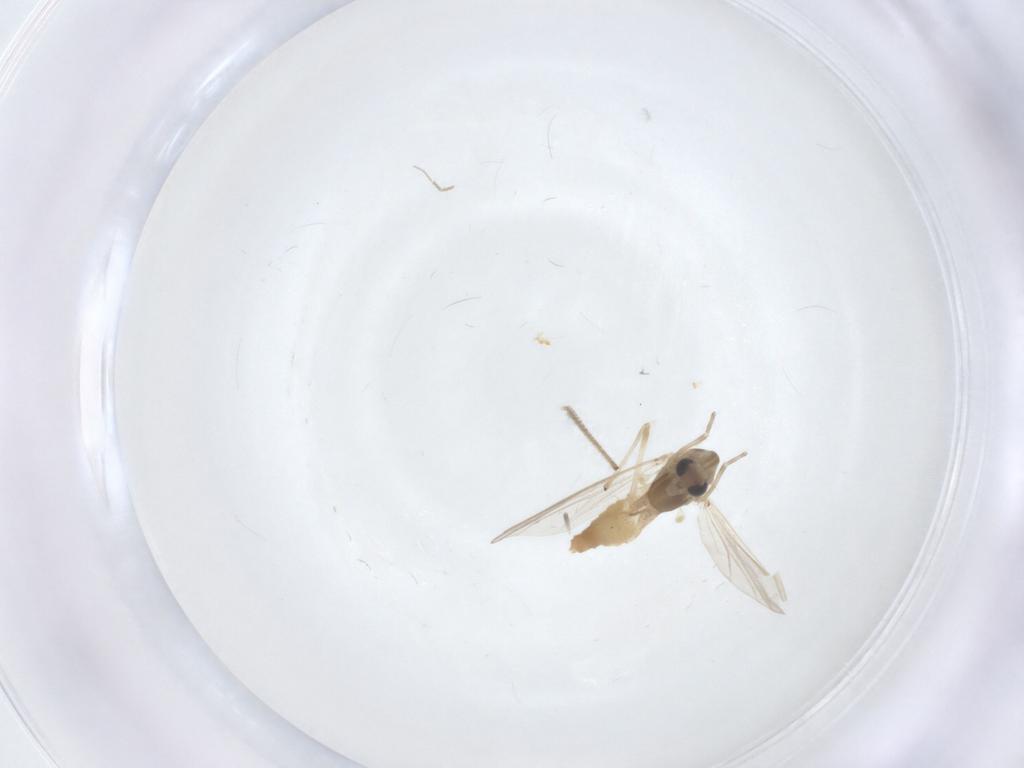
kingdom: Animalia
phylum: Arthropoda
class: Insecta
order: Diptera
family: Chironomidae
